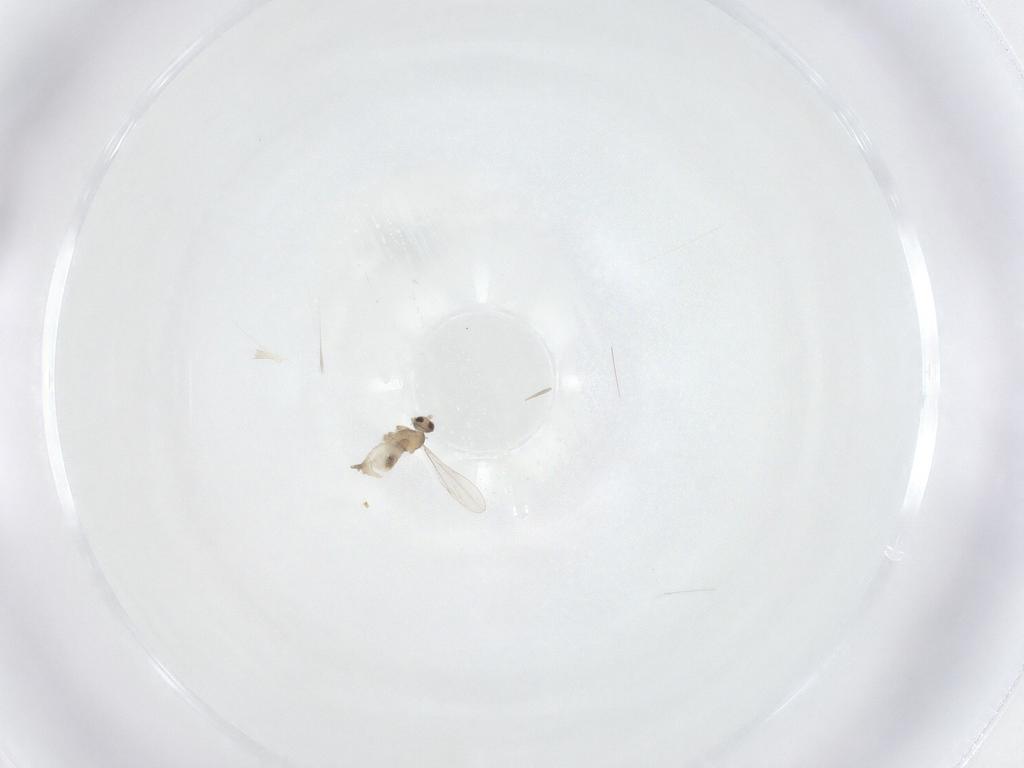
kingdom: Animalia
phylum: Arthropoda
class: Insecta
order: Diptera
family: Cecidomyiidae
